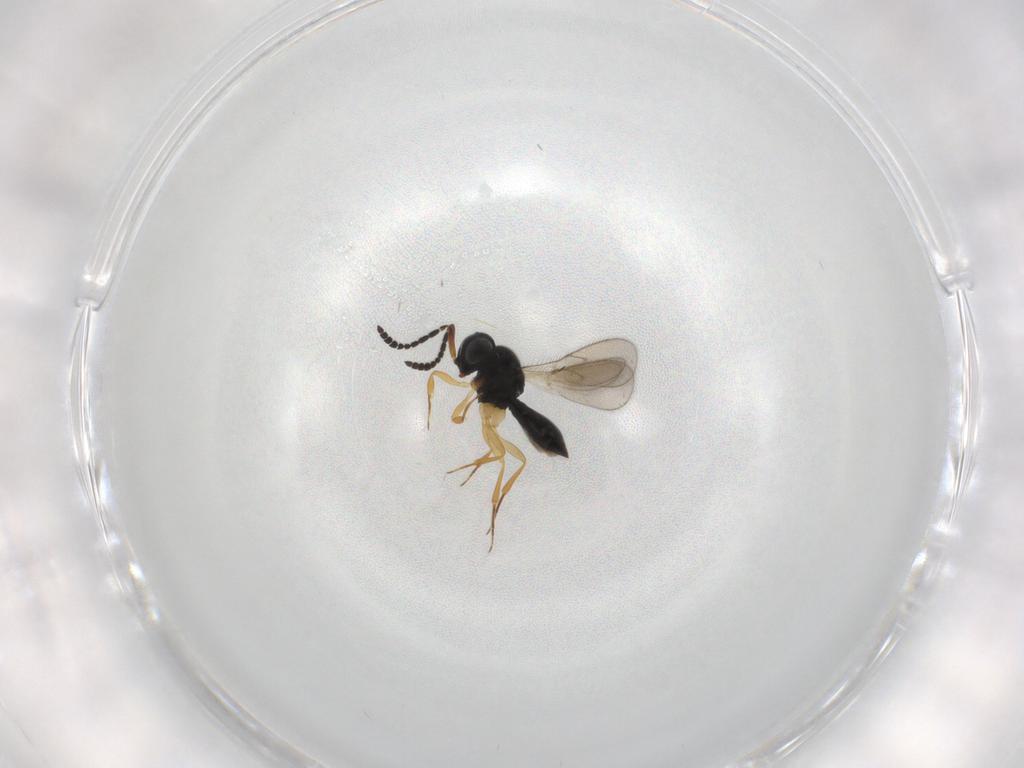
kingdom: Animalia
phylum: Arthropoda
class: Insecta
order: Hymenoptera
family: Scelionidae
